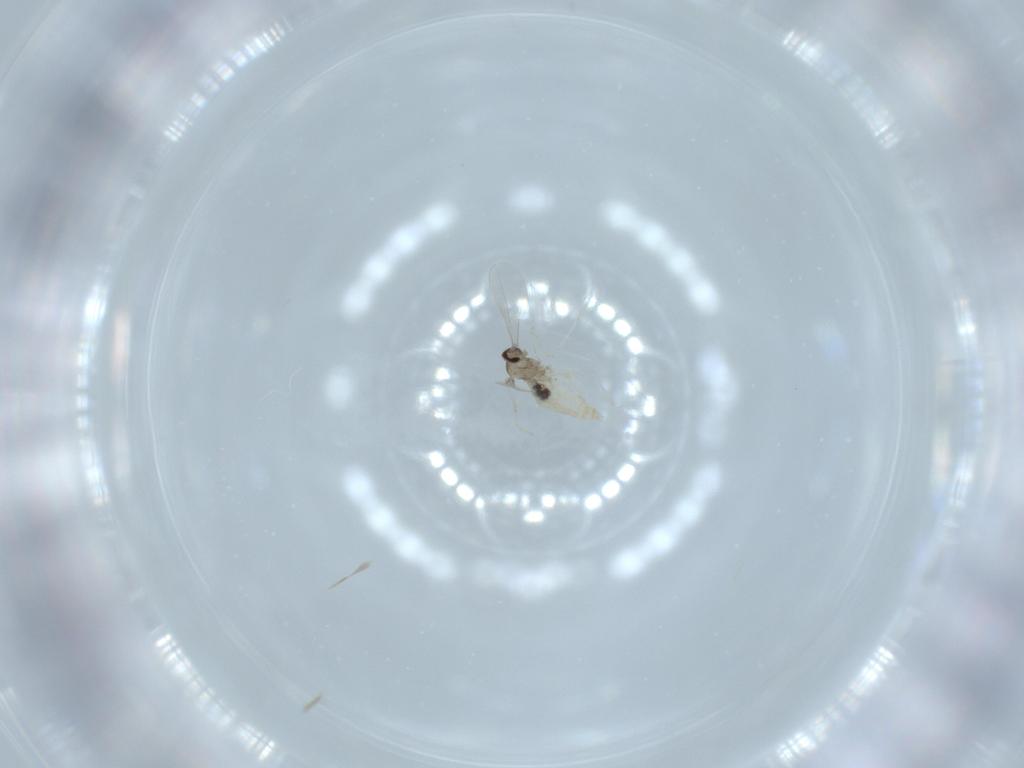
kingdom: Animalia
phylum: Arthropoda
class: Insecta
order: Diptera
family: Cecidomyiidae
